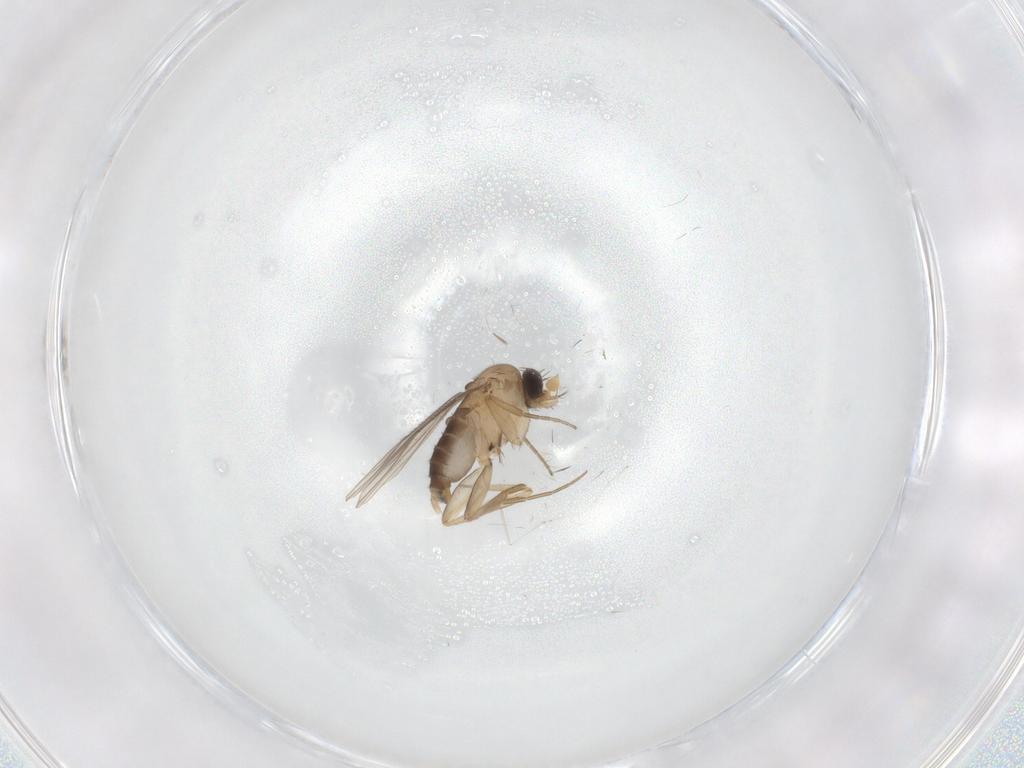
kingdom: Animalia
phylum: Arthropoda
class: Insecta
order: Diptera
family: Phoridae
